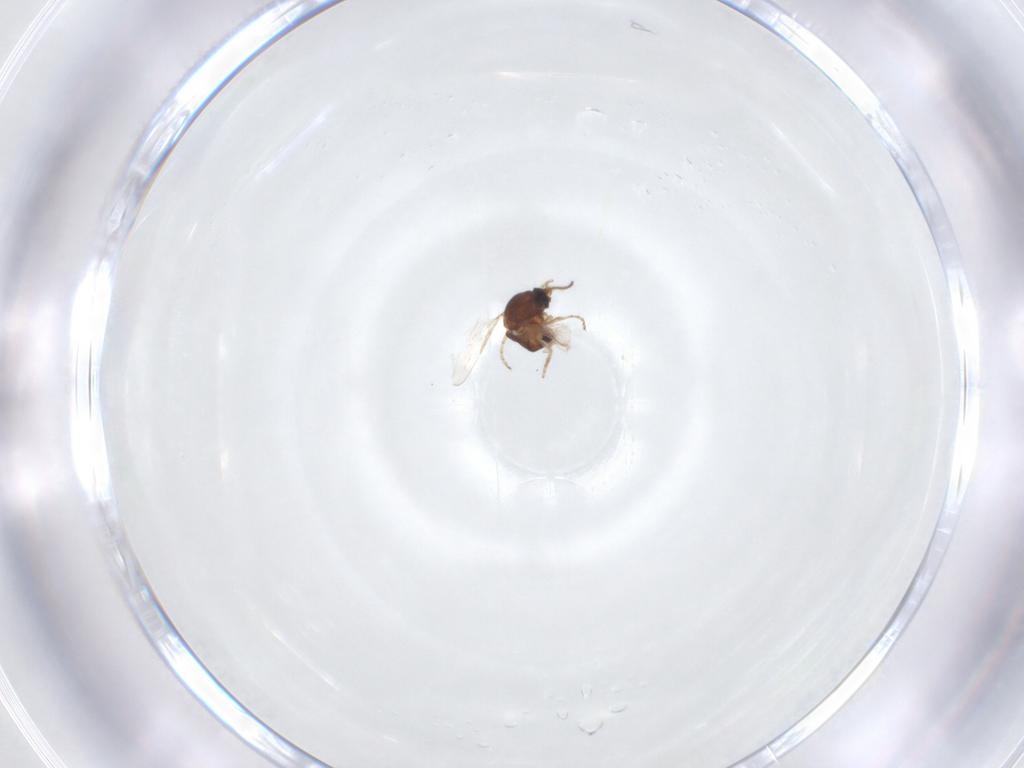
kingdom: Animalia
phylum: Arthropoda
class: Insecta
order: Diptera
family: Ceratopogonidae
